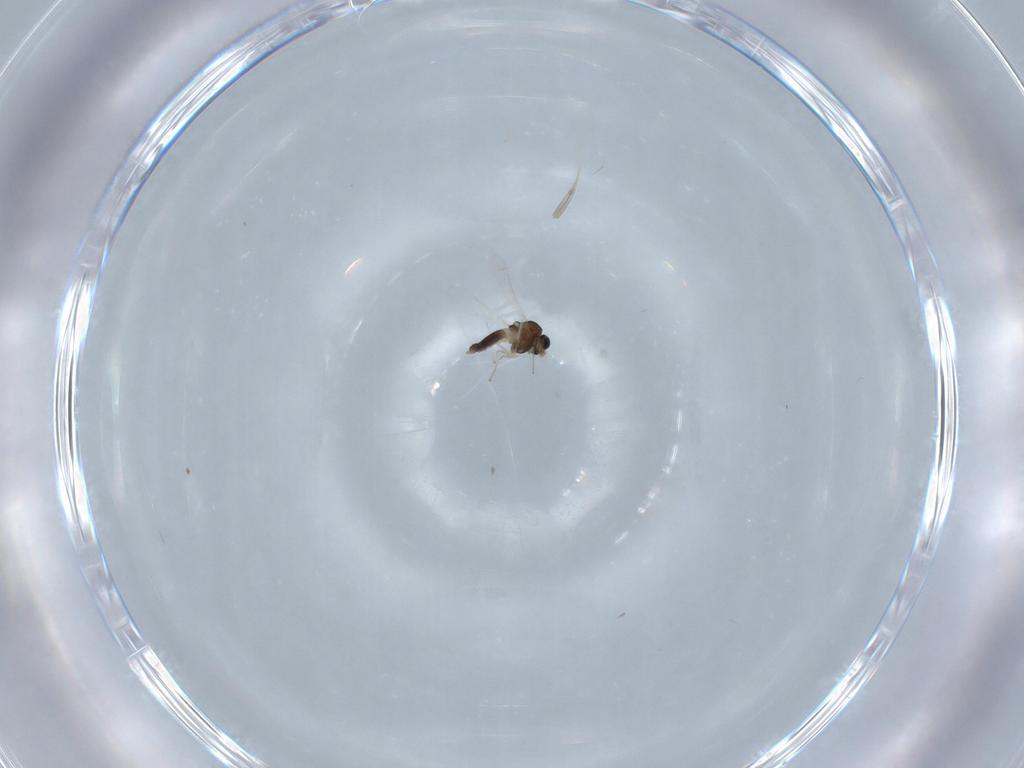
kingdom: Animalia
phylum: Arthropoda
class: Insecta
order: Diptera
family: Chironomidae
